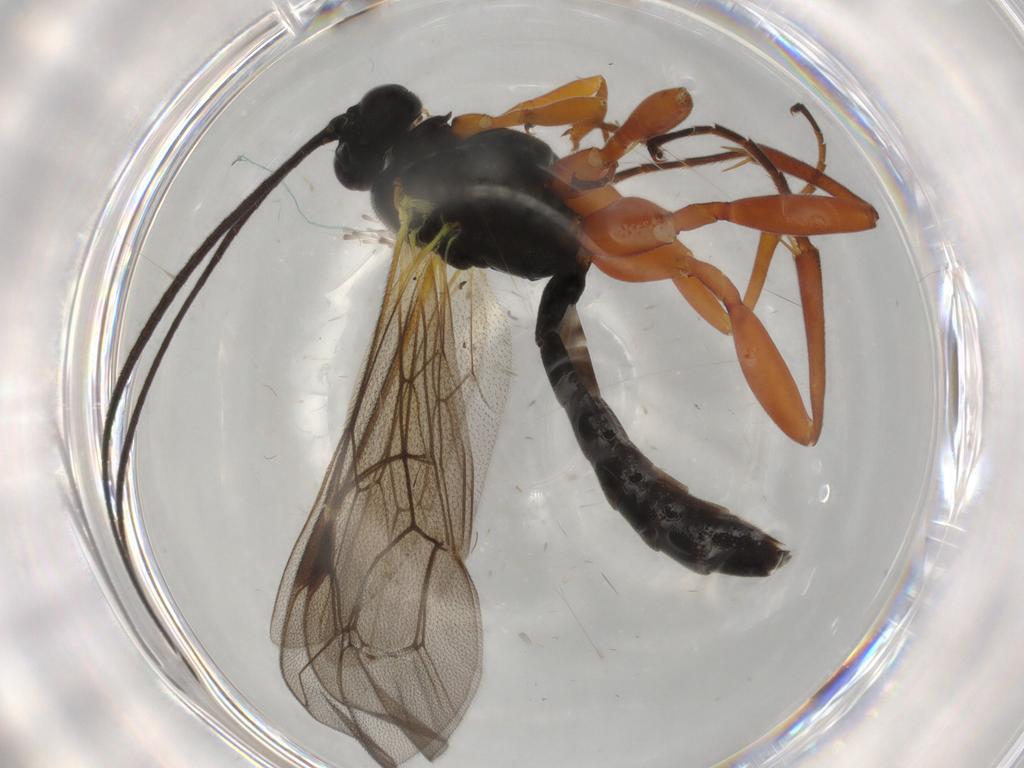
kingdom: Animalia
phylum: Arthropoda
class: Insecta
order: Hymenoptera
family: Ichneumonidae
